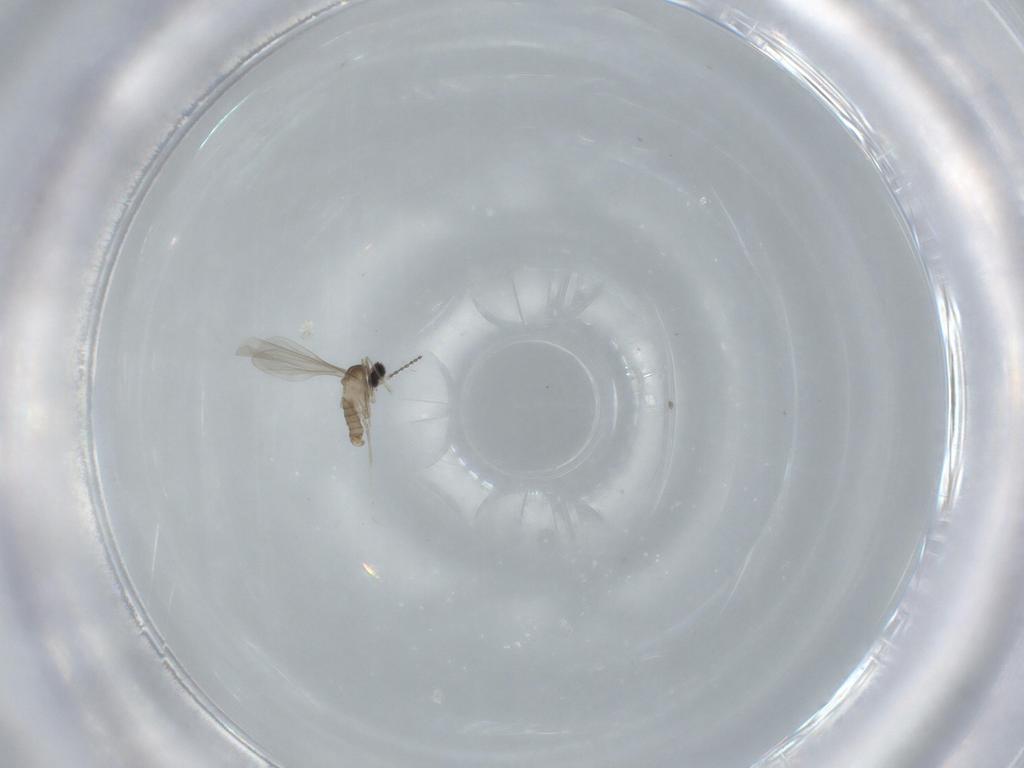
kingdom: Animalia
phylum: Arthropoda
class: Insecta
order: Diptera
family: Cecidomyiidae
